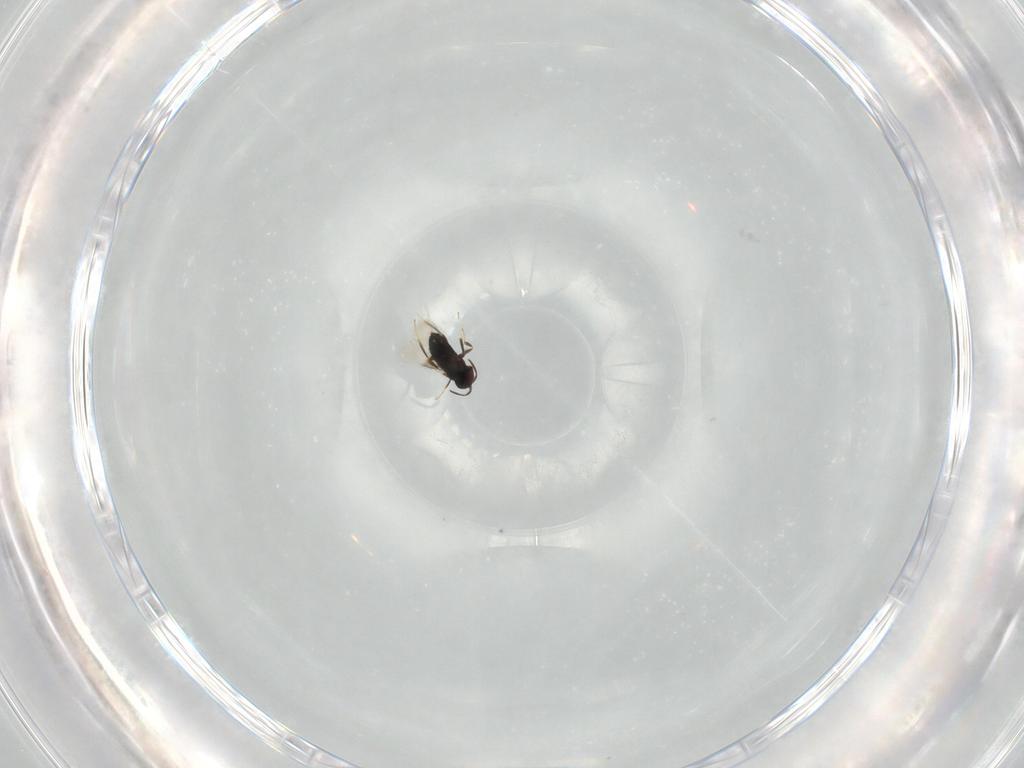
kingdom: Animalia
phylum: Arthropoda
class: Insecta
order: Hymenoptera
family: Signiphoridae
